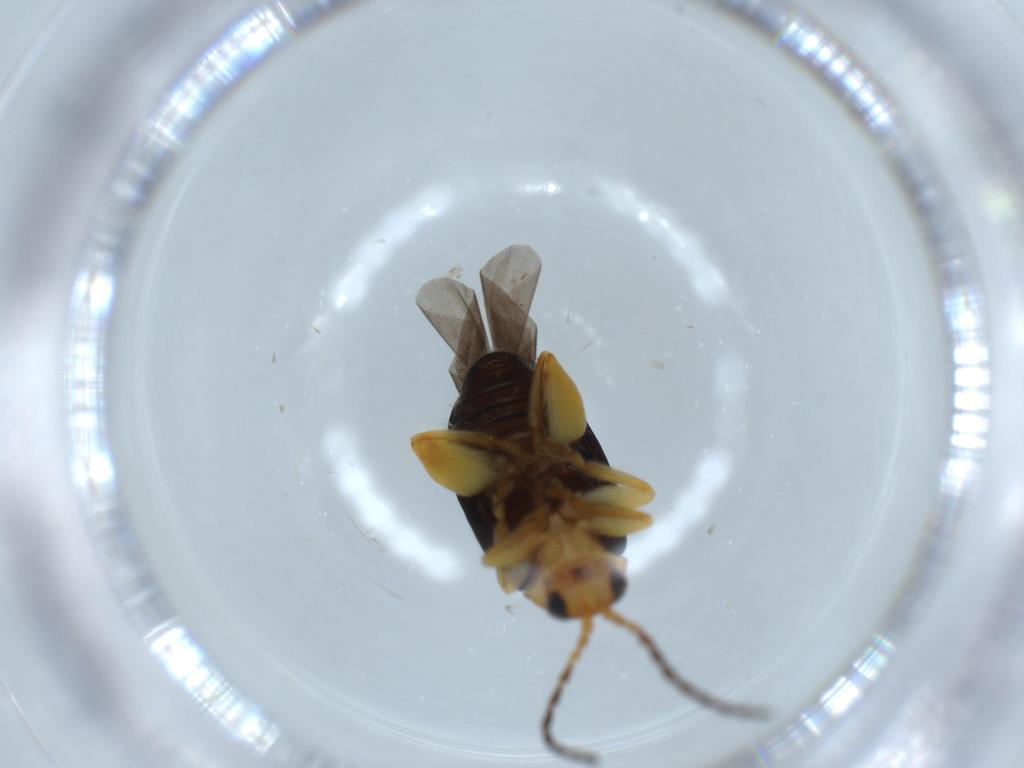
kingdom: Animalia
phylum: Arthropoda
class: Insecta
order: Coleoptera
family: Chrysomelidae
